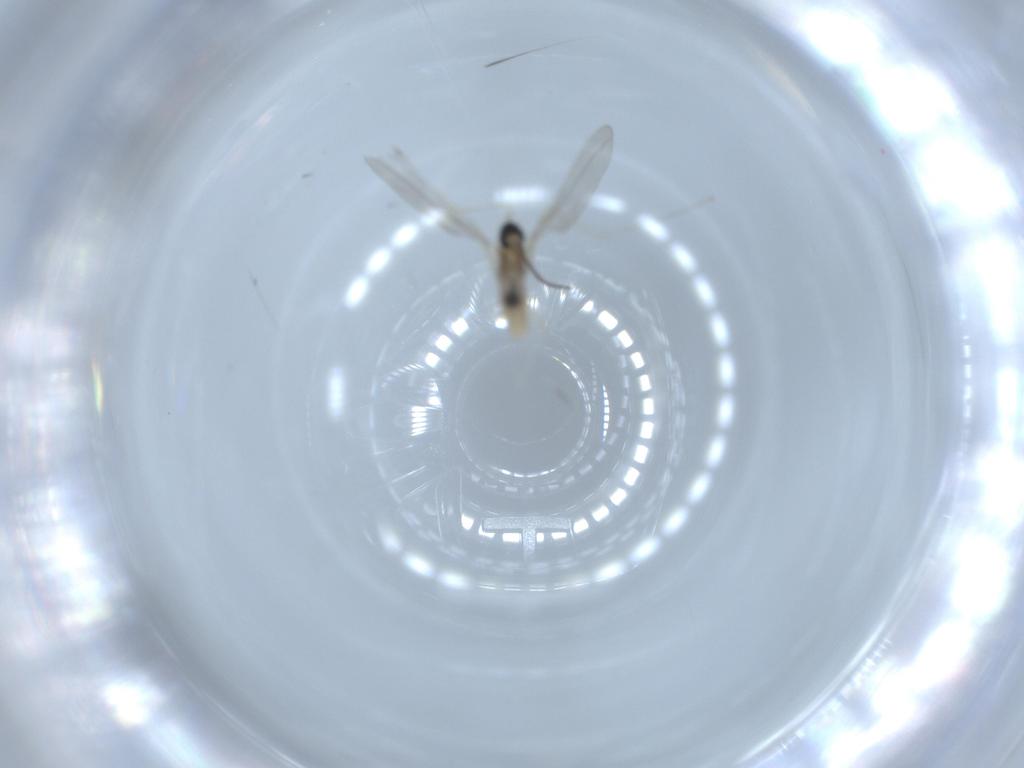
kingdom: Animalia
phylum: Arthropoda
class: Insecta
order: Diptera
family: Cecidomyiidae
